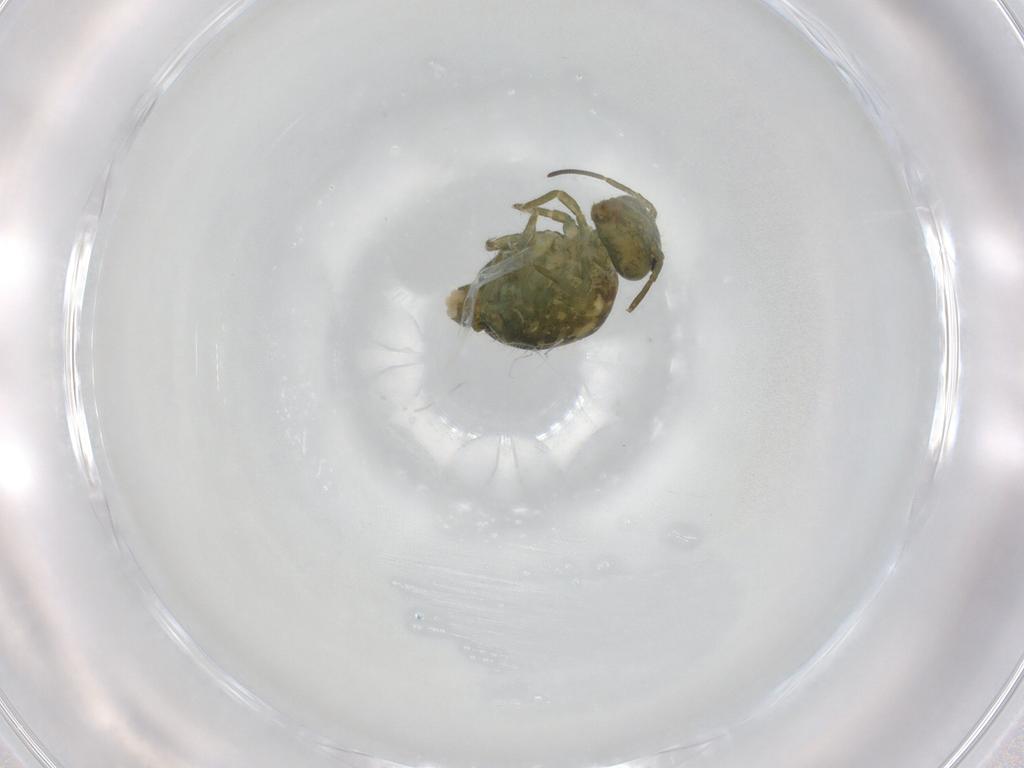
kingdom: Animalia
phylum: Arthropoda
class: Collembola
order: Symphypleona
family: Sminthuridae
